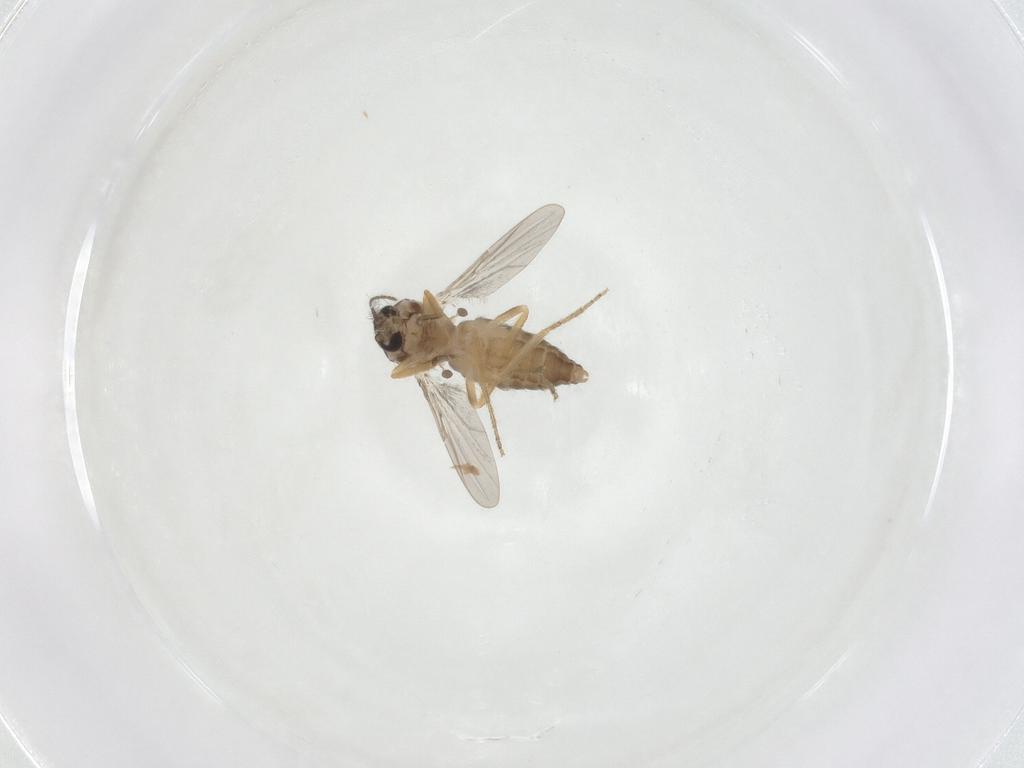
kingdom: Animalia
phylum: Arthropoda
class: Insecta
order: Diptera
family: Ceratopogonidae
